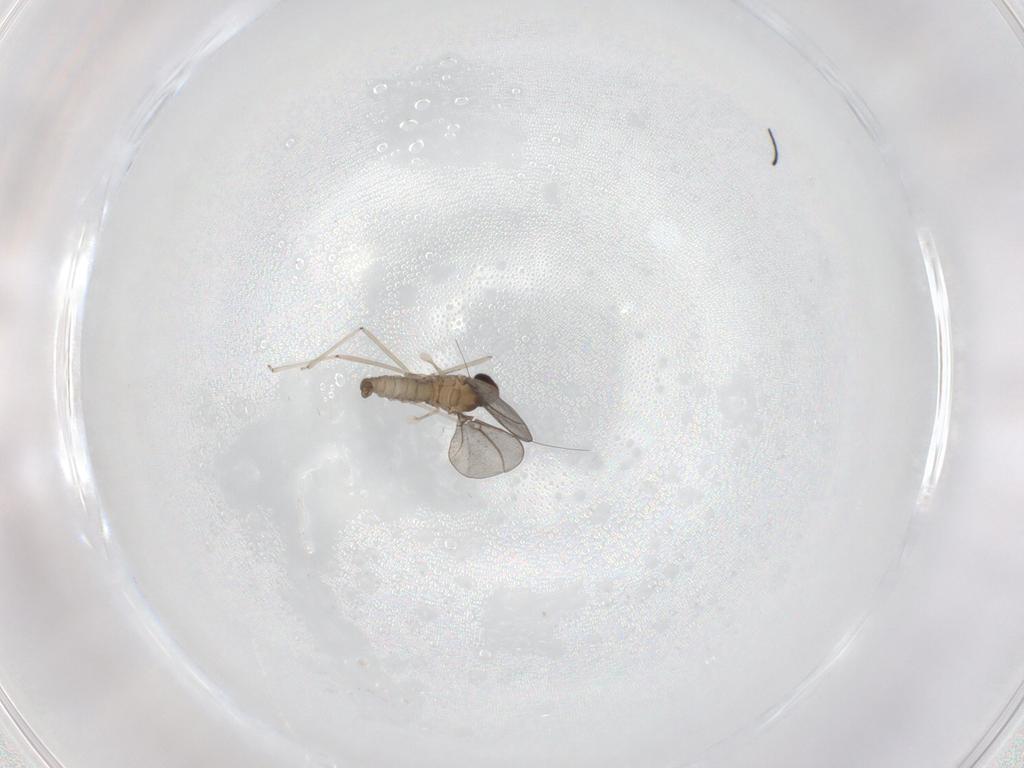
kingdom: Animalia
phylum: Arthropoda
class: Insecta
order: Diptera
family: Cecidomyiidae
